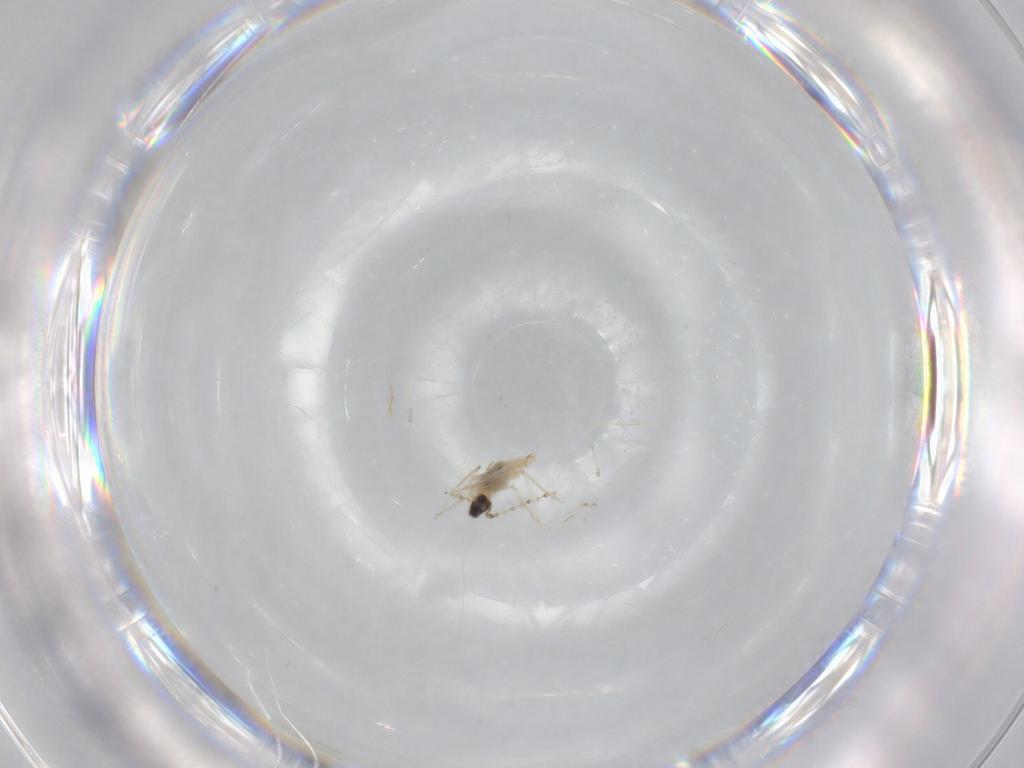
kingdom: Animalia
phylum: Arthropoda
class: Insecta
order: Diptera
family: Cecidomyiidae
